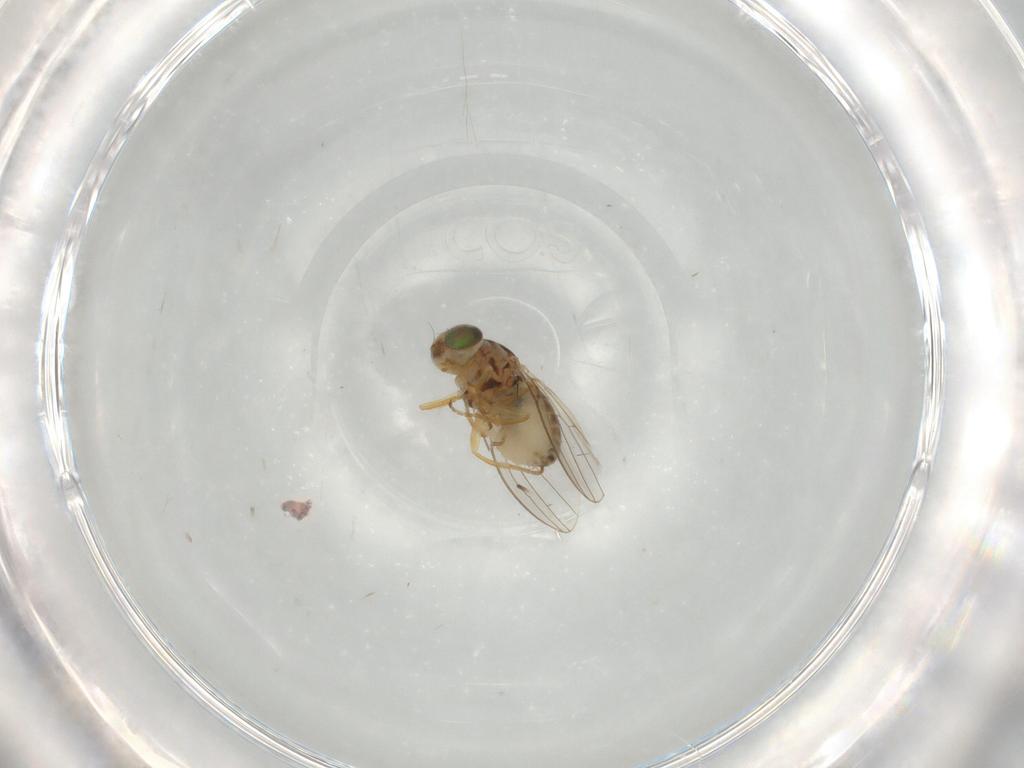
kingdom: Animalia
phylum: Arthropoda
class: Insecta
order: Diptera
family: Chyromyidae
